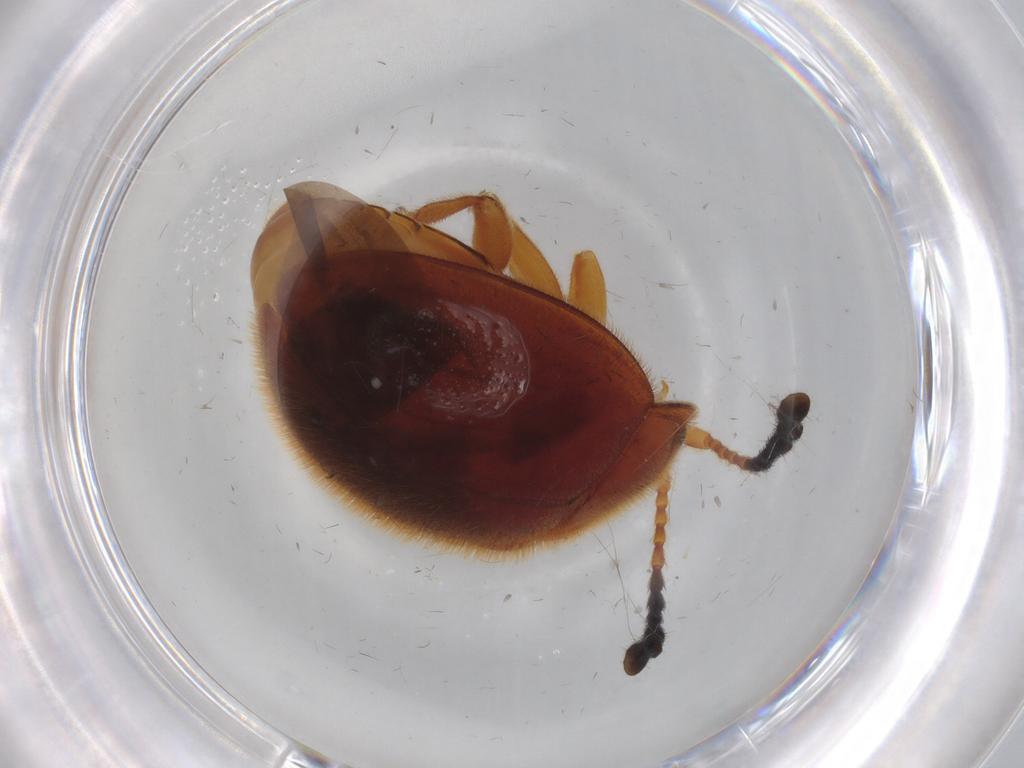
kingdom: Animalia
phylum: Arthropoda
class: Insecta
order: Coleoptera
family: Endomychidae
